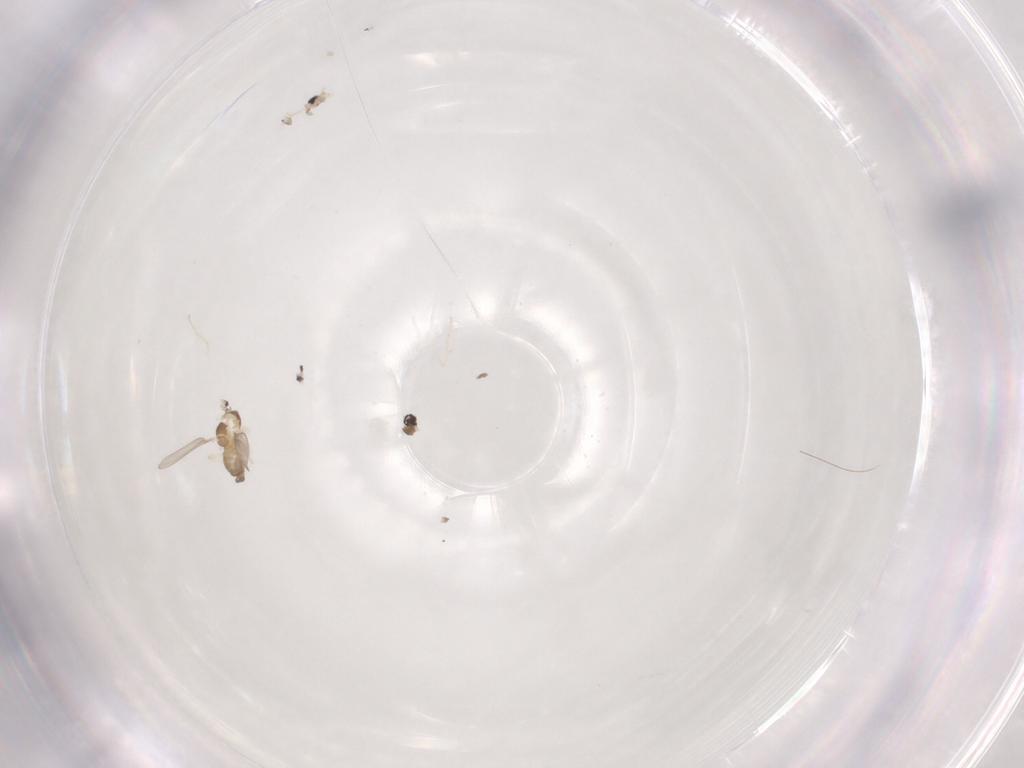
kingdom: Animalia
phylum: Arthropoda
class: Insecta
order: Diptera
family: Cecidomyiidae
